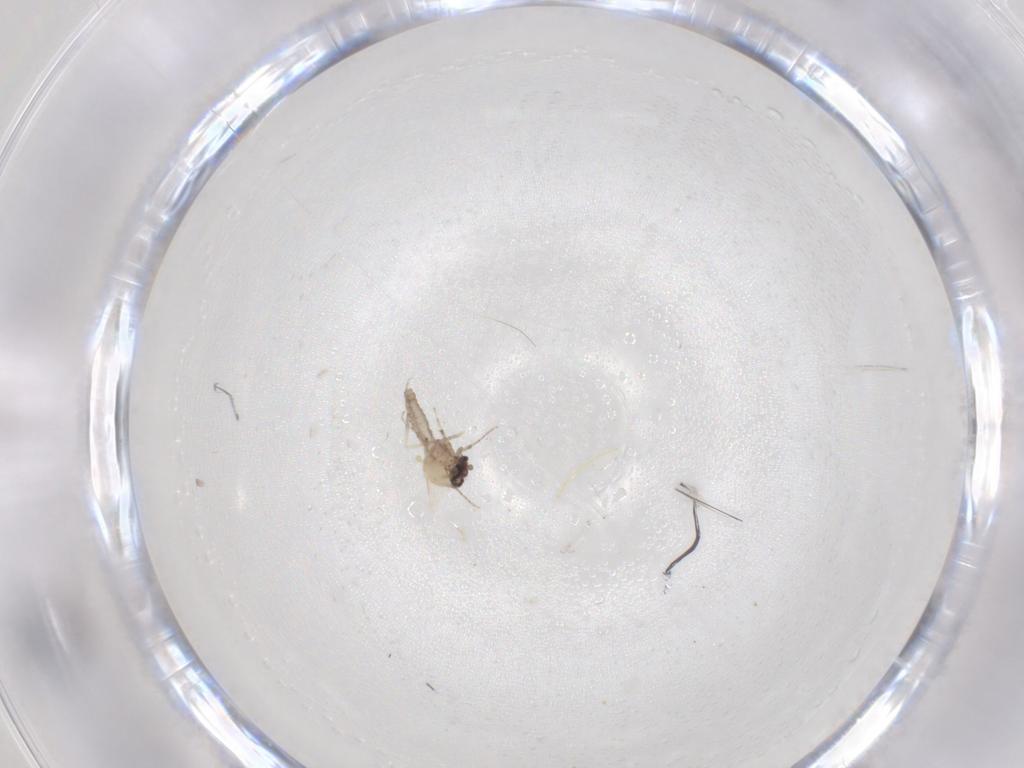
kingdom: Animalia
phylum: Arthropoda
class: Insecta
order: Diptera
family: Ceratopogonidae
